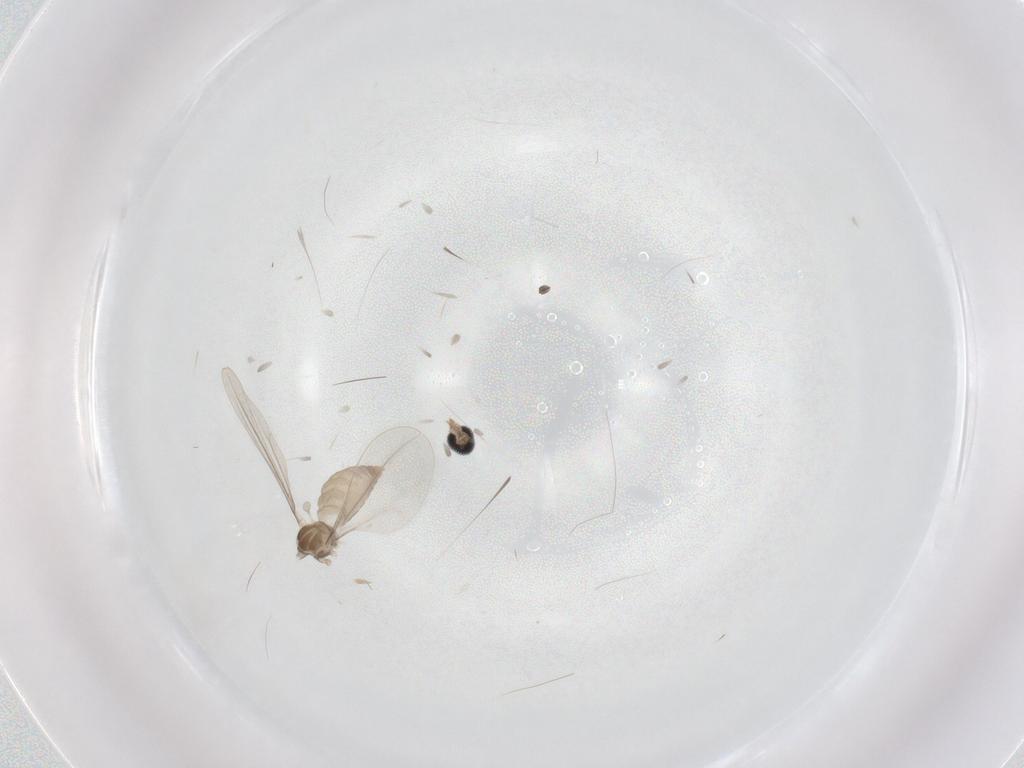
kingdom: Animalia
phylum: Arthropoda
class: Insecta
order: Diptera
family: Cecidomyiidae
